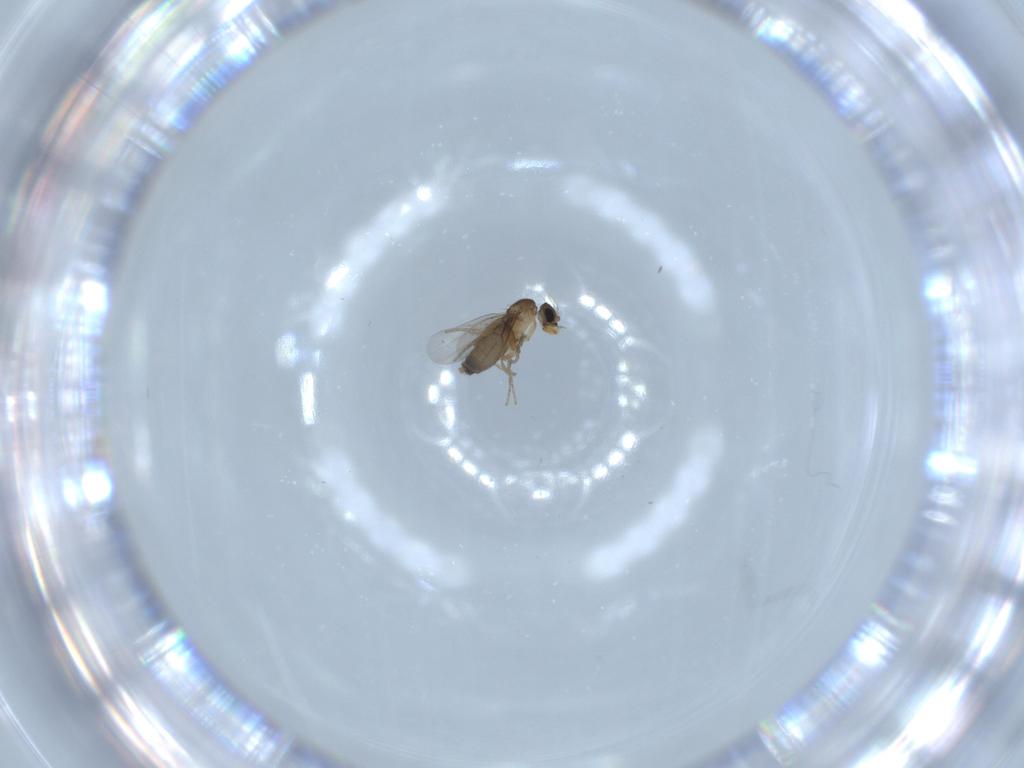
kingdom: Animalia
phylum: Arthropoda
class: Insecta
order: Diptera
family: Phoridae
